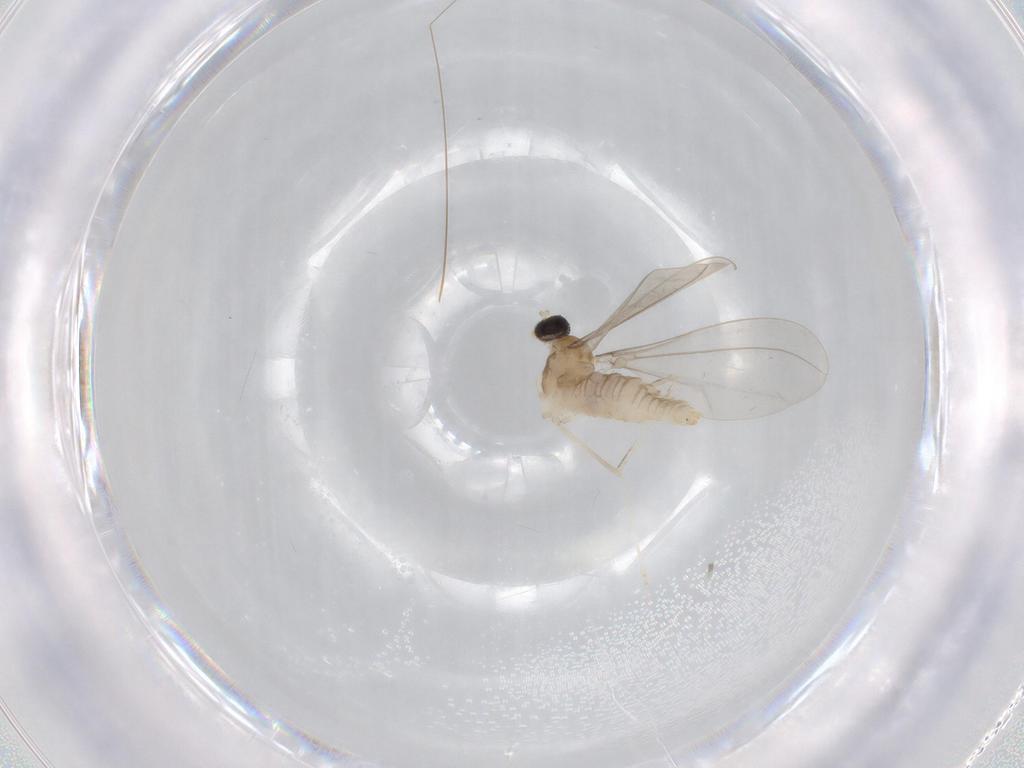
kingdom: Animalia
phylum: Arthropoda
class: Insecta
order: Diptera
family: Cecidomyiidae
